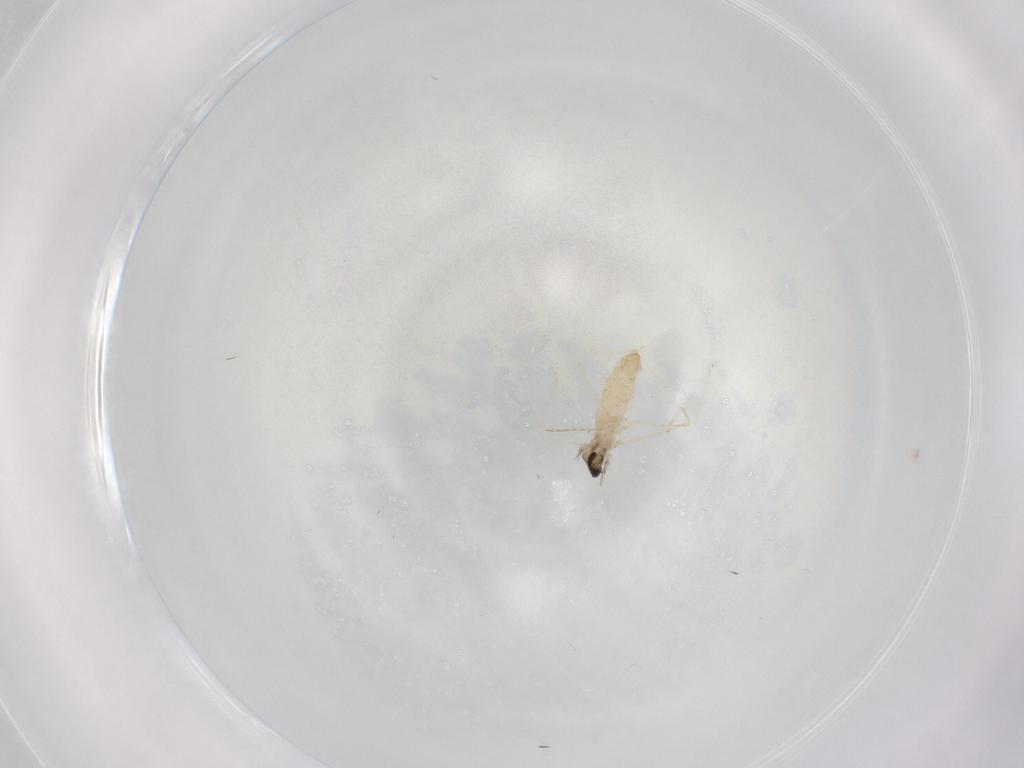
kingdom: Animalia
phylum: Arthropoda
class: Insecta
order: Diptera
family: Cecidomyiidae
